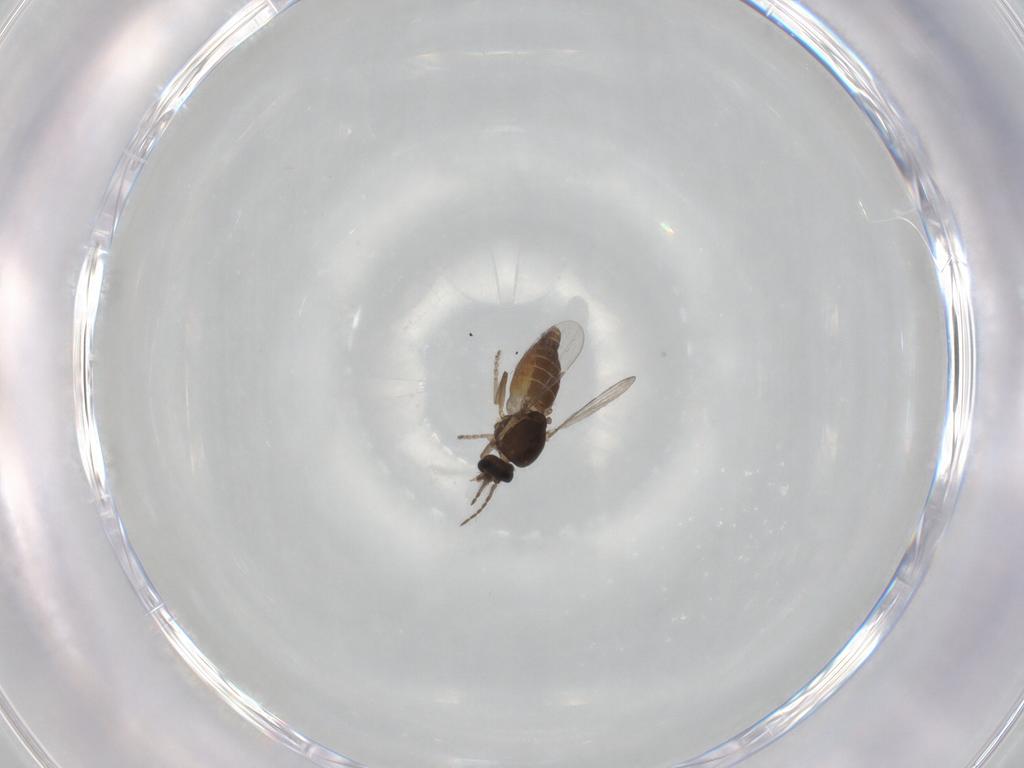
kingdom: Animalia
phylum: Arthropoda
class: Insecta
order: Diptera
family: Ceratopogonidae
